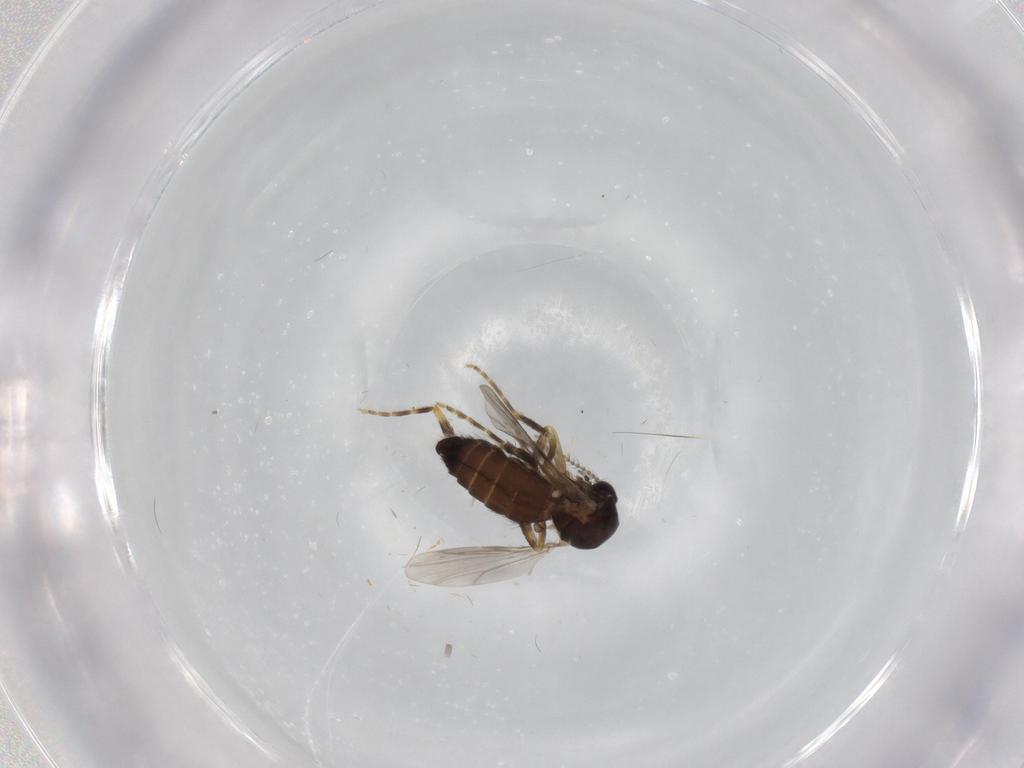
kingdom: Animalia
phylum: Arthropoda
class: Insecta
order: Diptera
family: Ceratopogonidae
